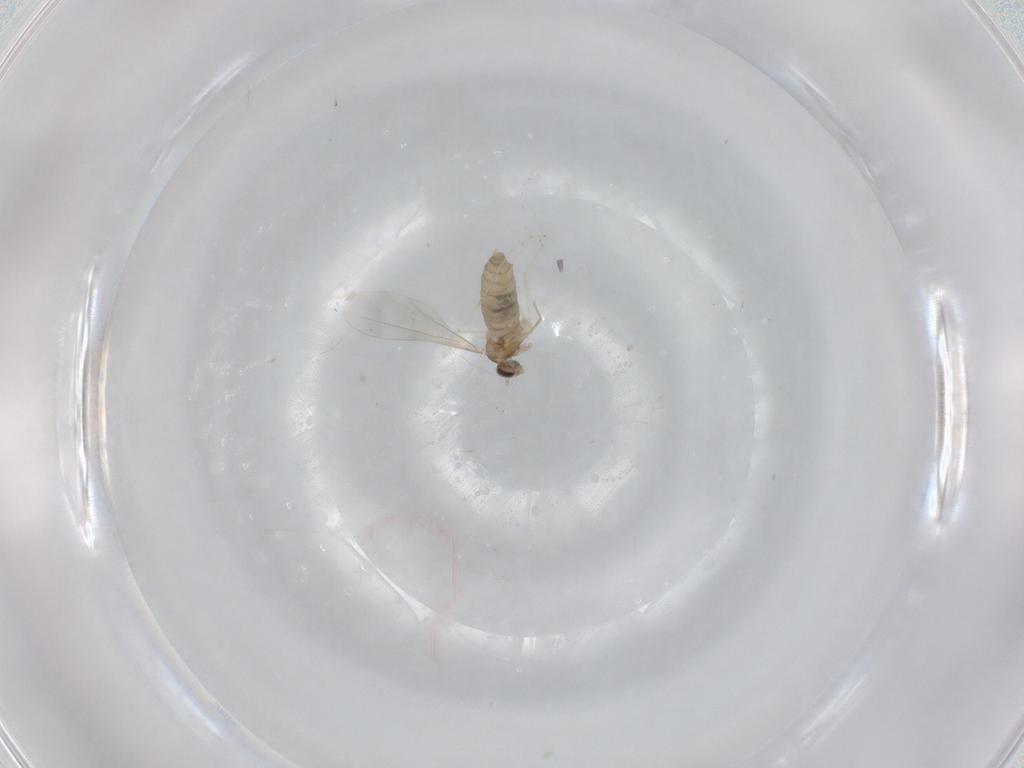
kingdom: Animalia
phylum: Arthropoda
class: Insecta
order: Diptera
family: Cecidomyiidae
